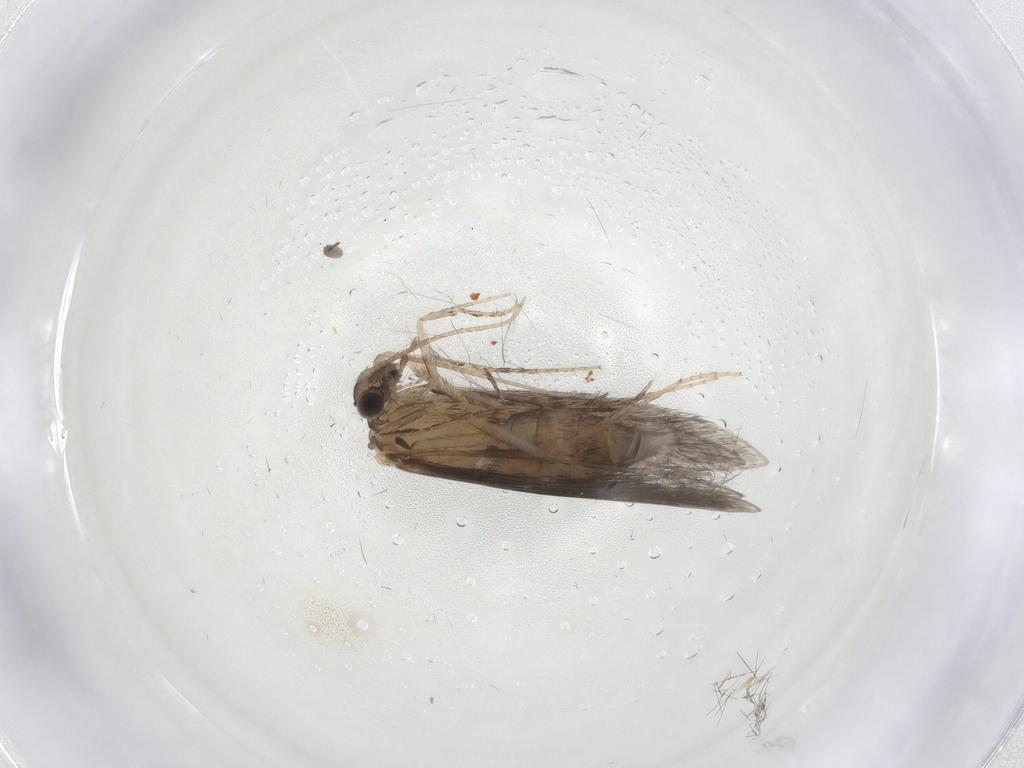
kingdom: Animalia
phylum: Arthropoda
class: Insecta
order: Trichoptera
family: Hydroptilidae
